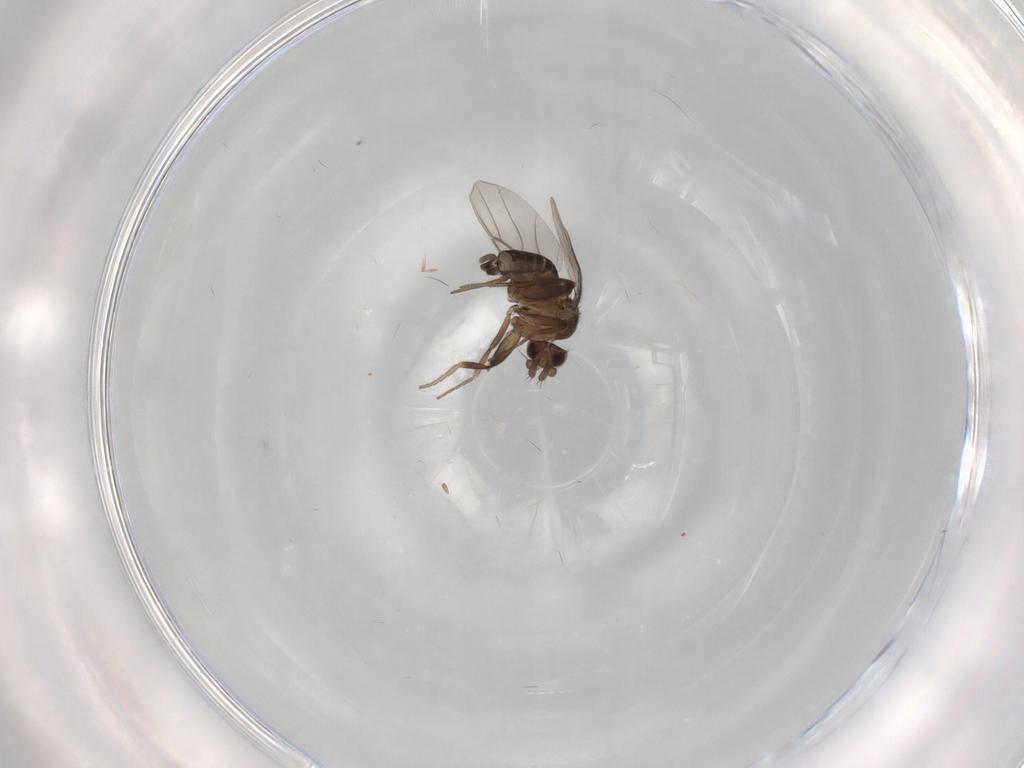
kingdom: Animalia
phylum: Arthropoda
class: Insecta
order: Diptera
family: Phoridae
